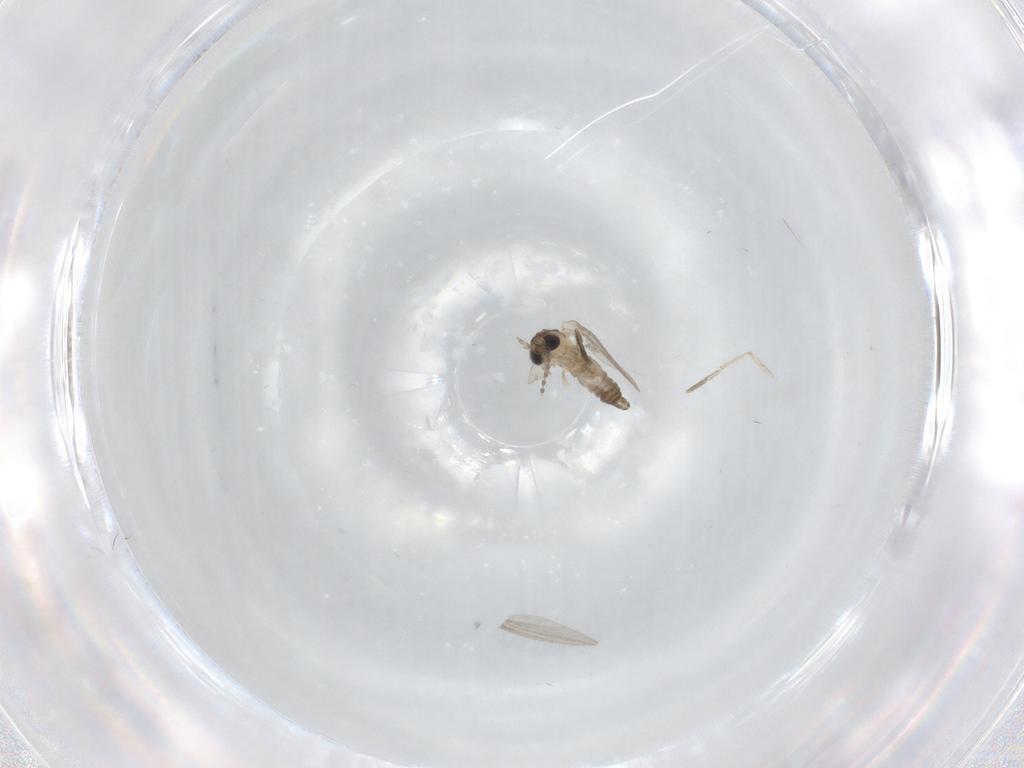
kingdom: Animalia
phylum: Arthropoda
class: Insecta
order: Diptera
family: Psychodidae
